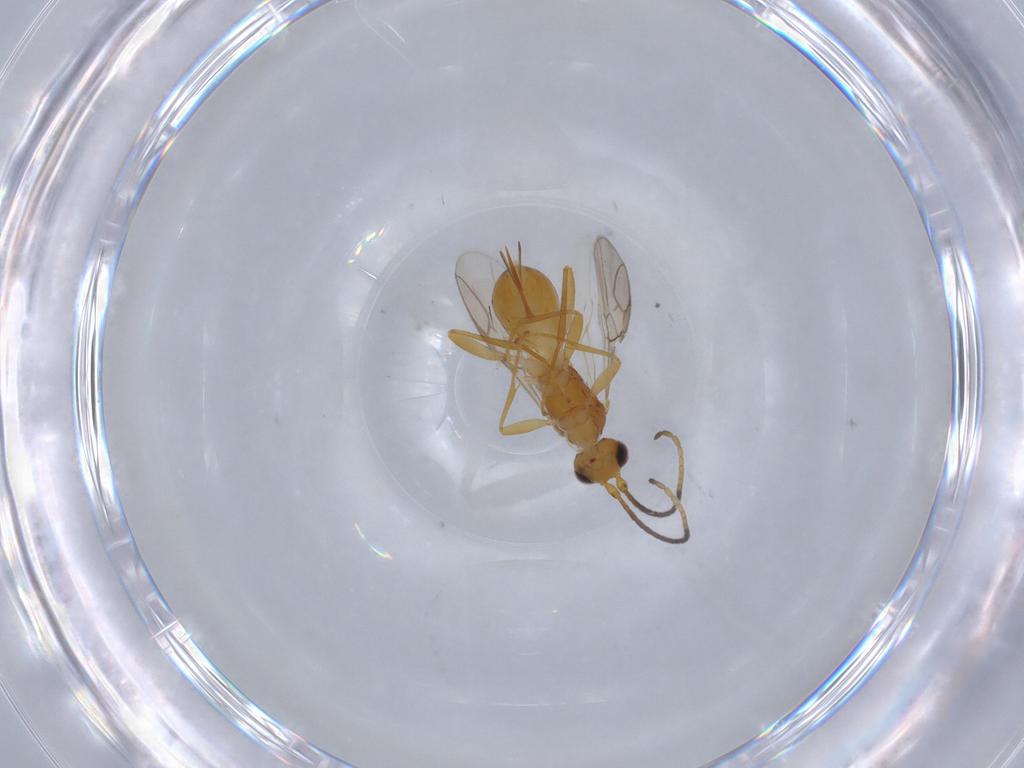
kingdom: Animalia
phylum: Arthropoda
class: Insecta
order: Hymenoptera
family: Braconidae
